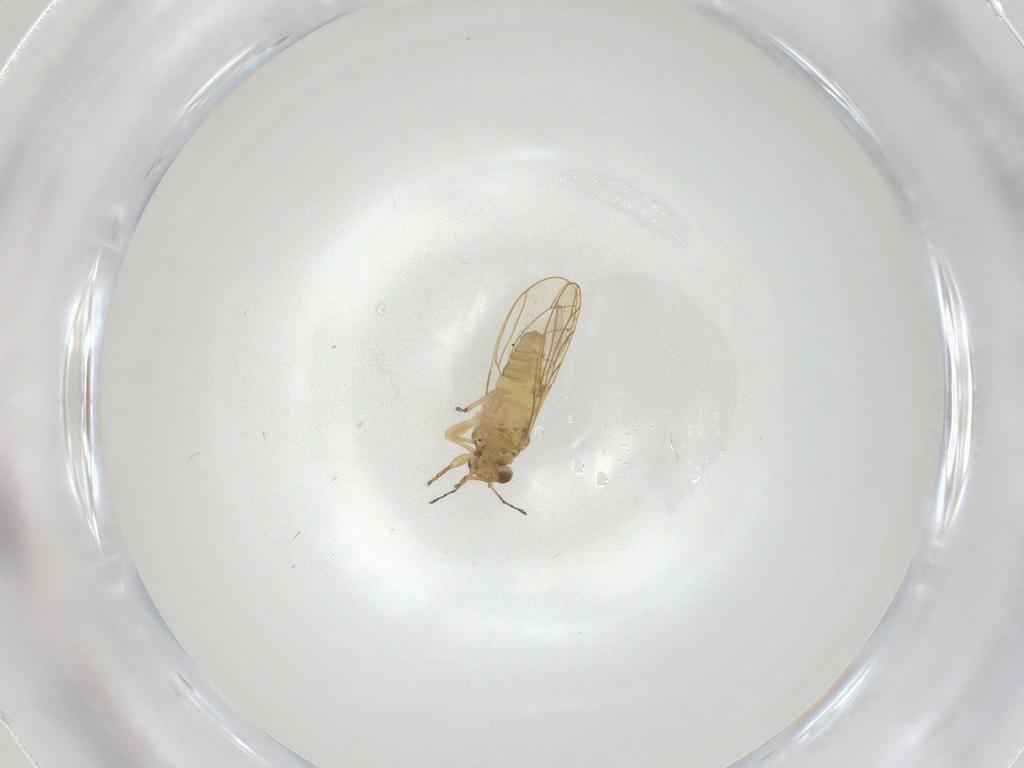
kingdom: Animalia
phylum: Arthropoda
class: Insecta
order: Hemiptera
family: Psylloidea_incertae_sedis
